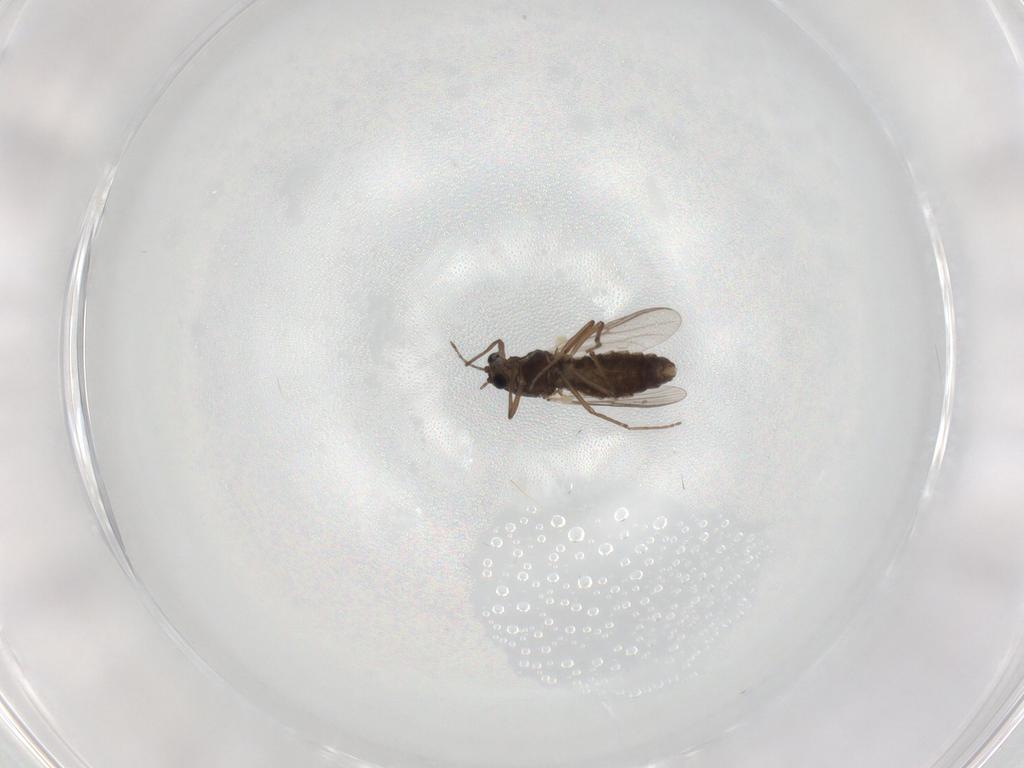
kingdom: Animalia
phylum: Arthropoda
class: Insecta
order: Diptera
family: Chironomidae
